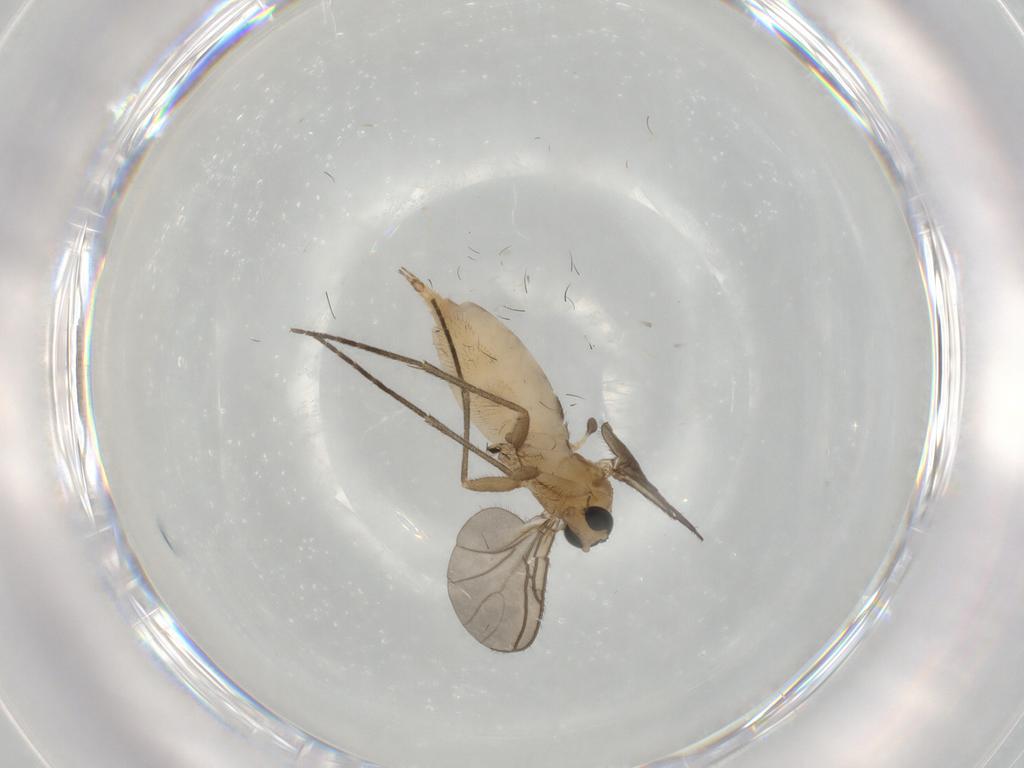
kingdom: Animalia
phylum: Arthropoda
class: Insecta
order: Diptera
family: Sciaridae
